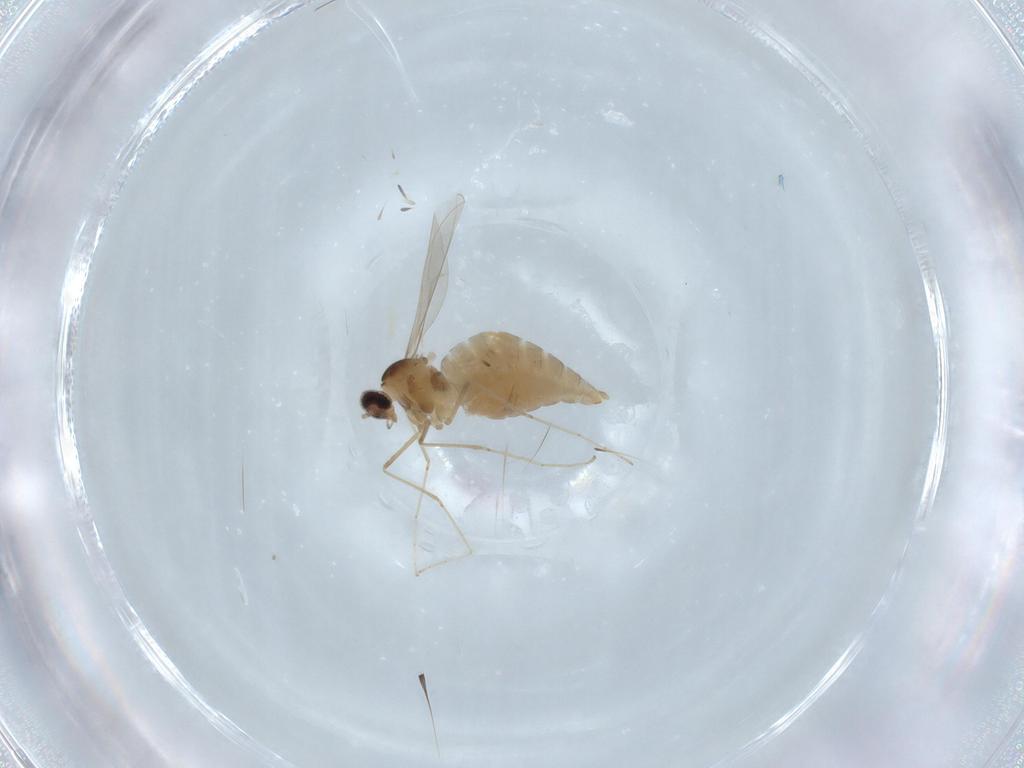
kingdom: Animalia
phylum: Arthropoda
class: Insecta
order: Diptera
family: Cecidomyiidae
